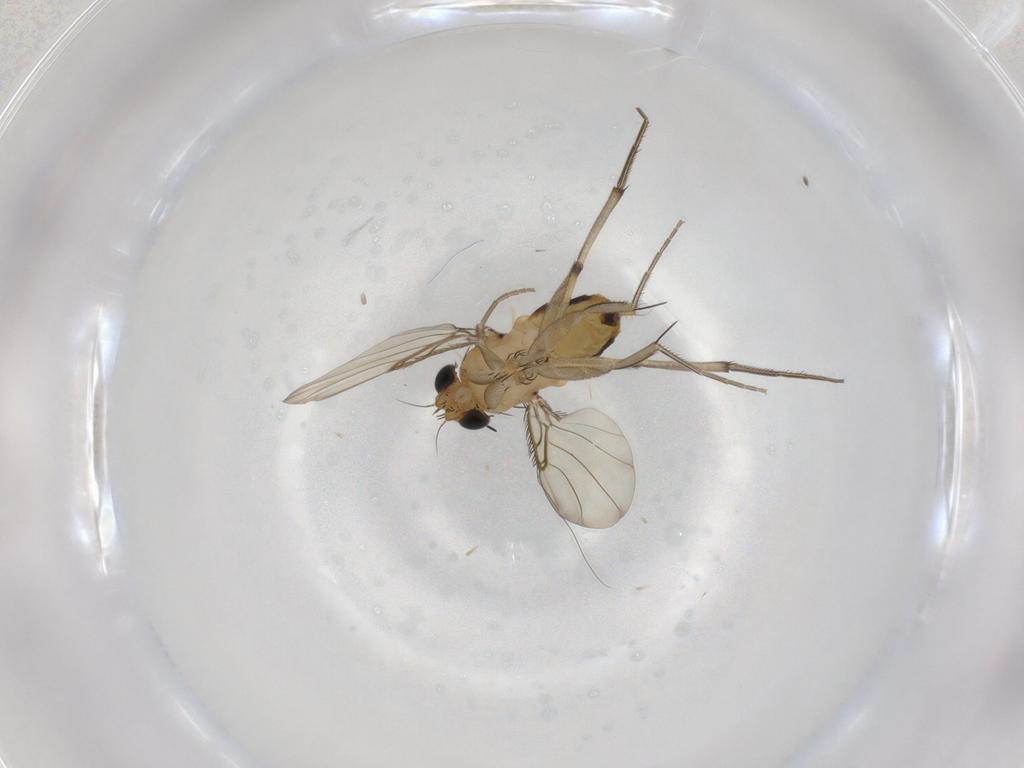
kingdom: Animalia
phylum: Arthropoda
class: Insecta
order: Diptera
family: Phoridae
